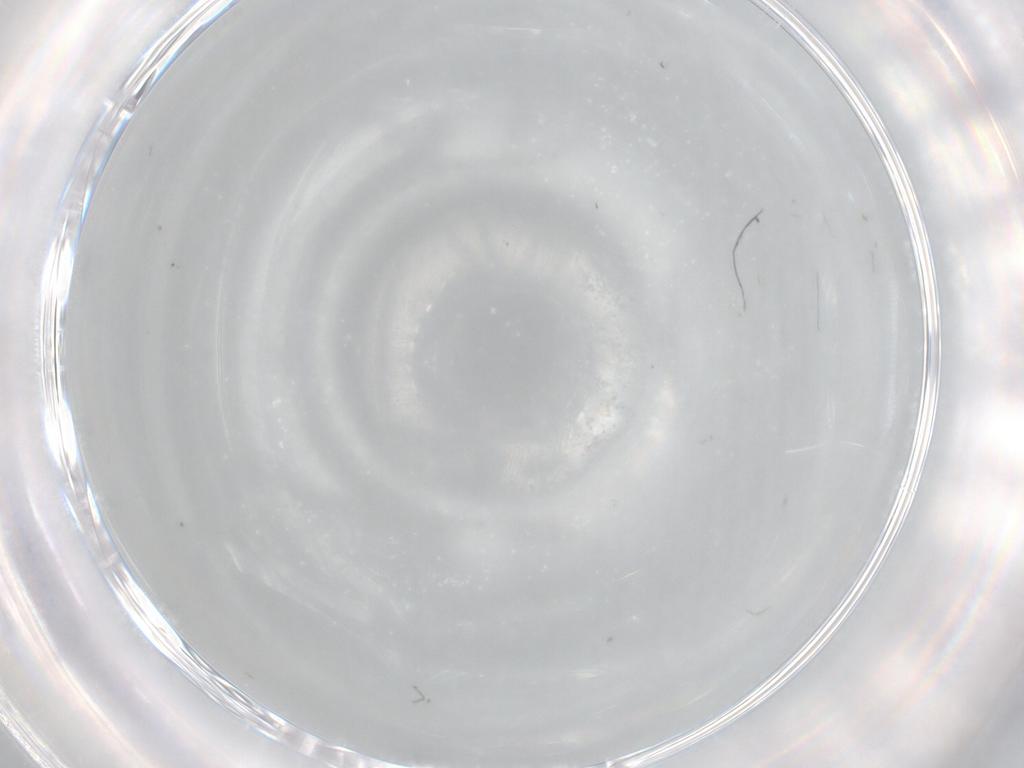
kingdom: Animalia
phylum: Arthropoda
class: Insecta
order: Diptera
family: Cecidomyiidae
